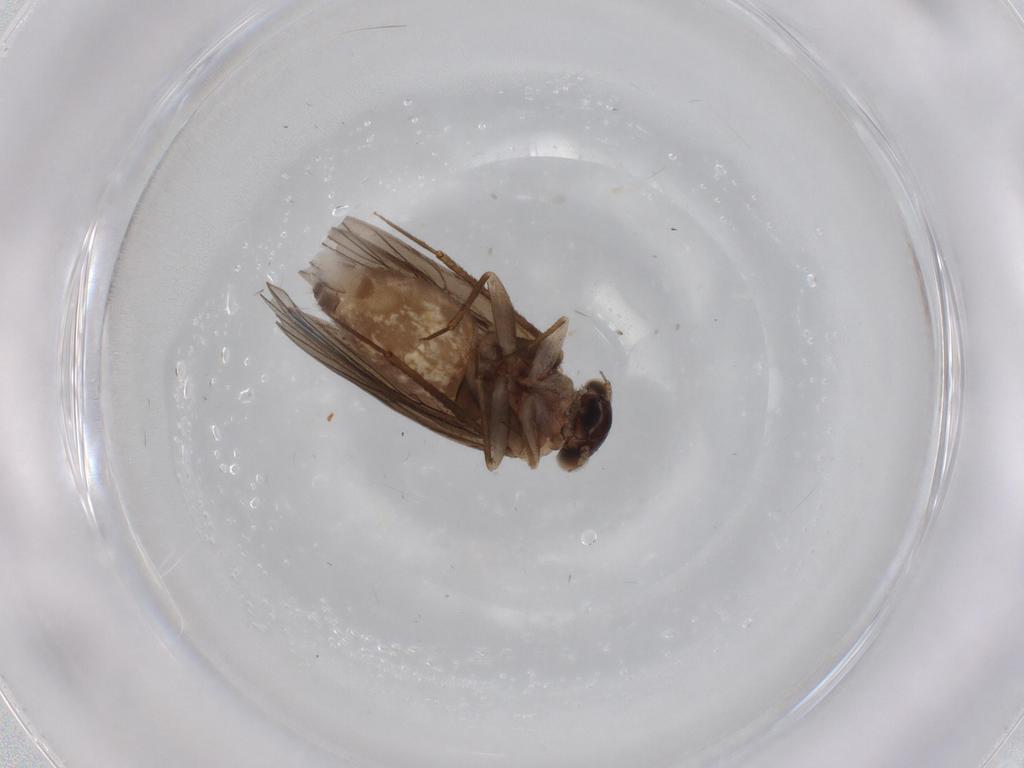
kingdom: Animalia
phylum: Arthropoda
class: Insecta
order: Psocodea
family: Lepidopsocidae
